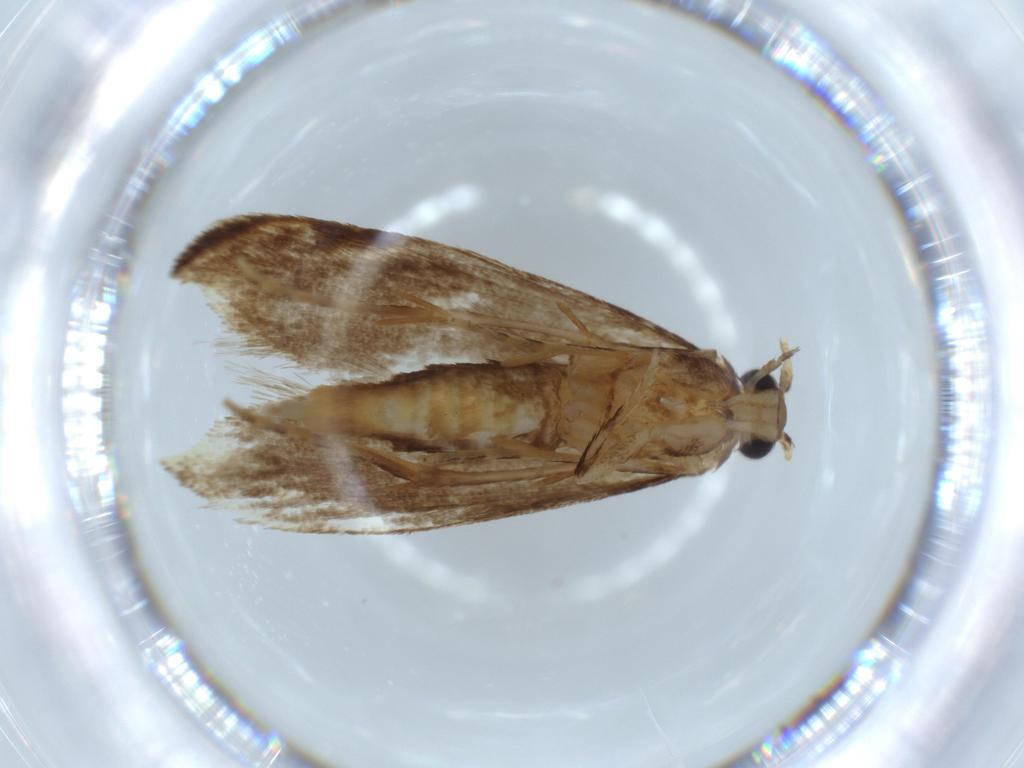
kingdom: Animalia
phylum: Arthropoda
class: Insecta
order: Lepidoptera
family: Tineidae
